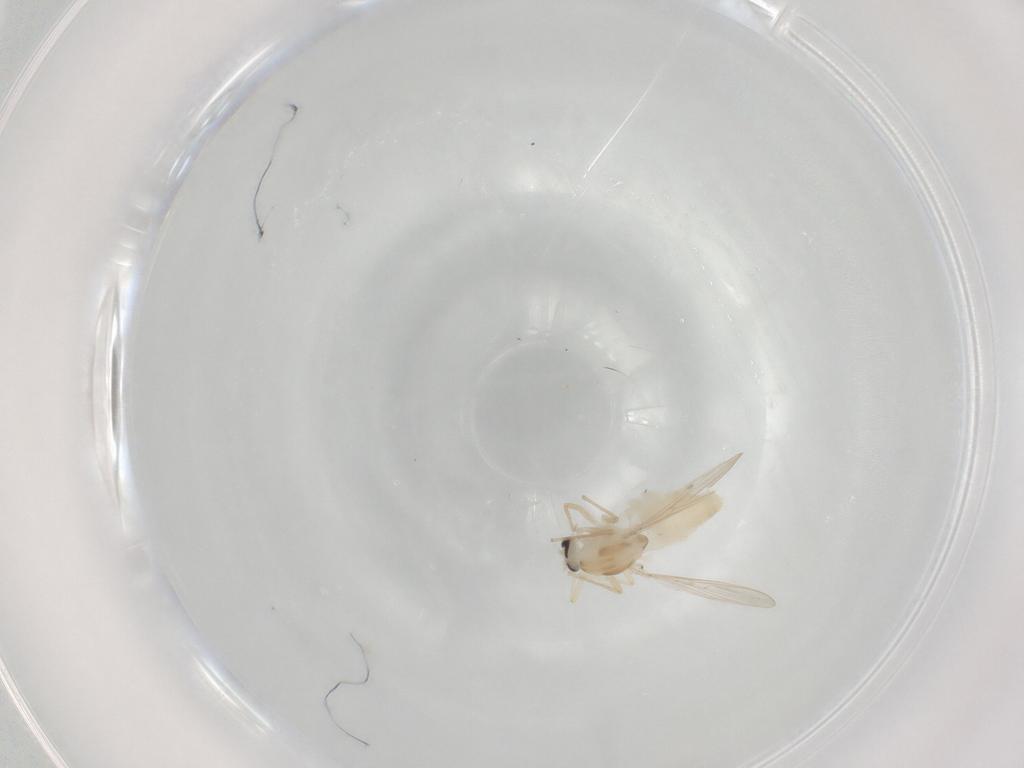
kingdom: Animalia
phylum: Arthropoda
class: Insecta
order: Diptera
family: Chironomidae
